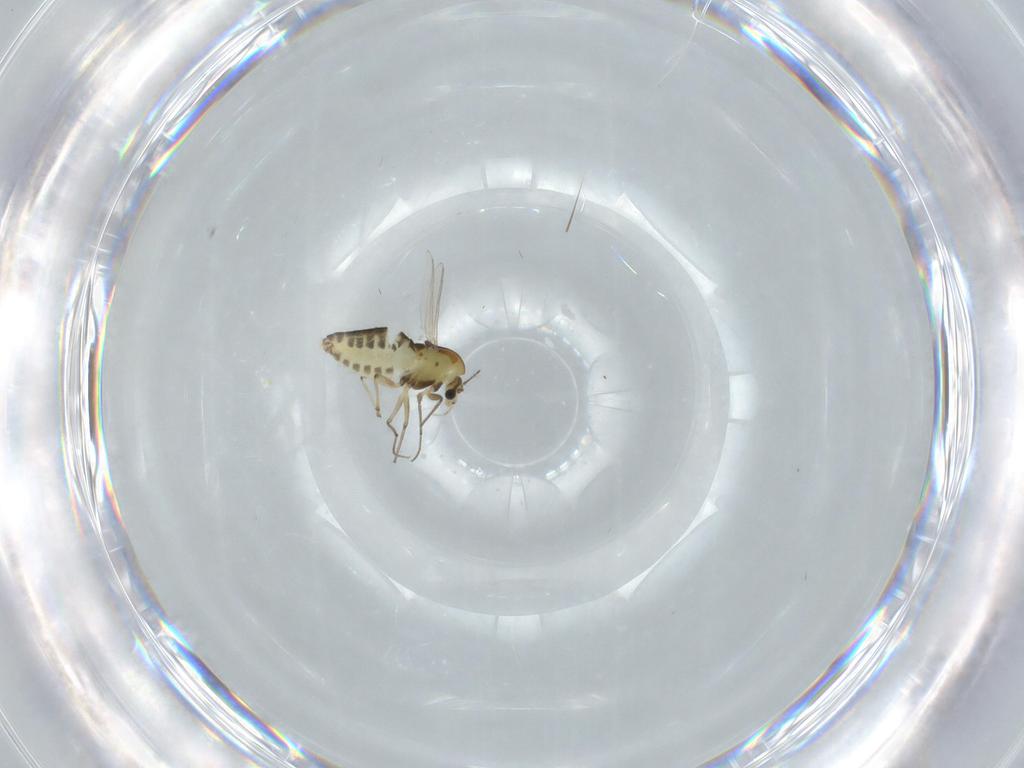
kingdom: Animalia
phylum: Arthropoda
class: Insecta
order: Diptera
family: Chironomidae
